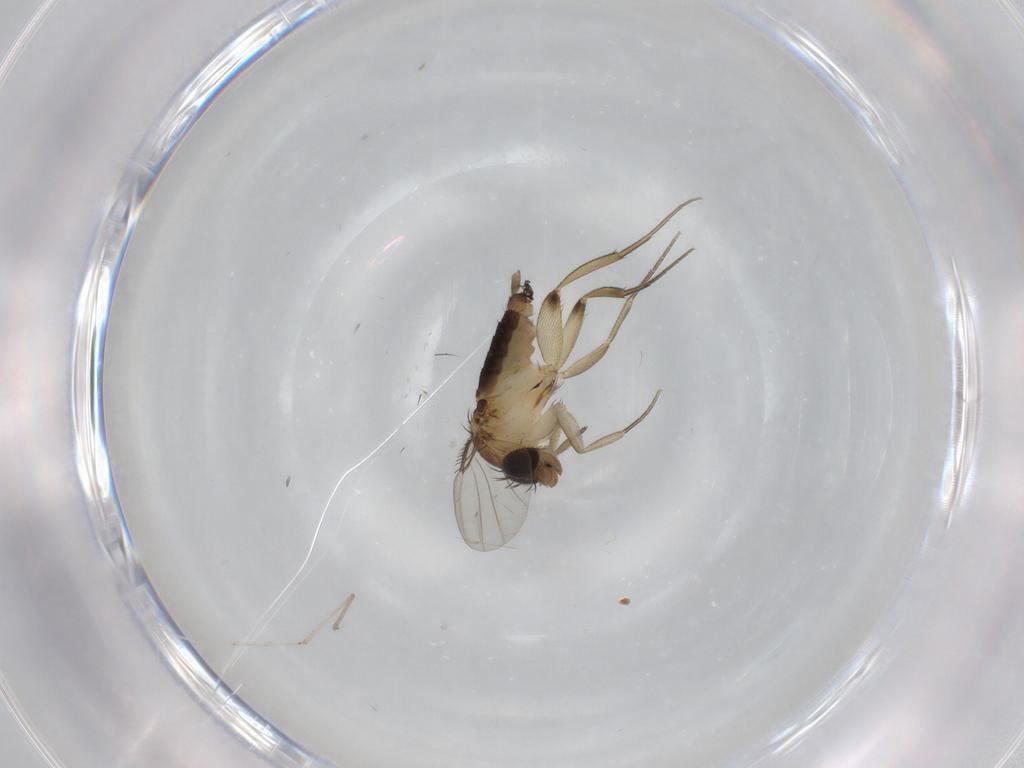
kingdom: Animalia
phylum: Arthropoda
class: Insecta
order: Diptera
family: Phoridae
